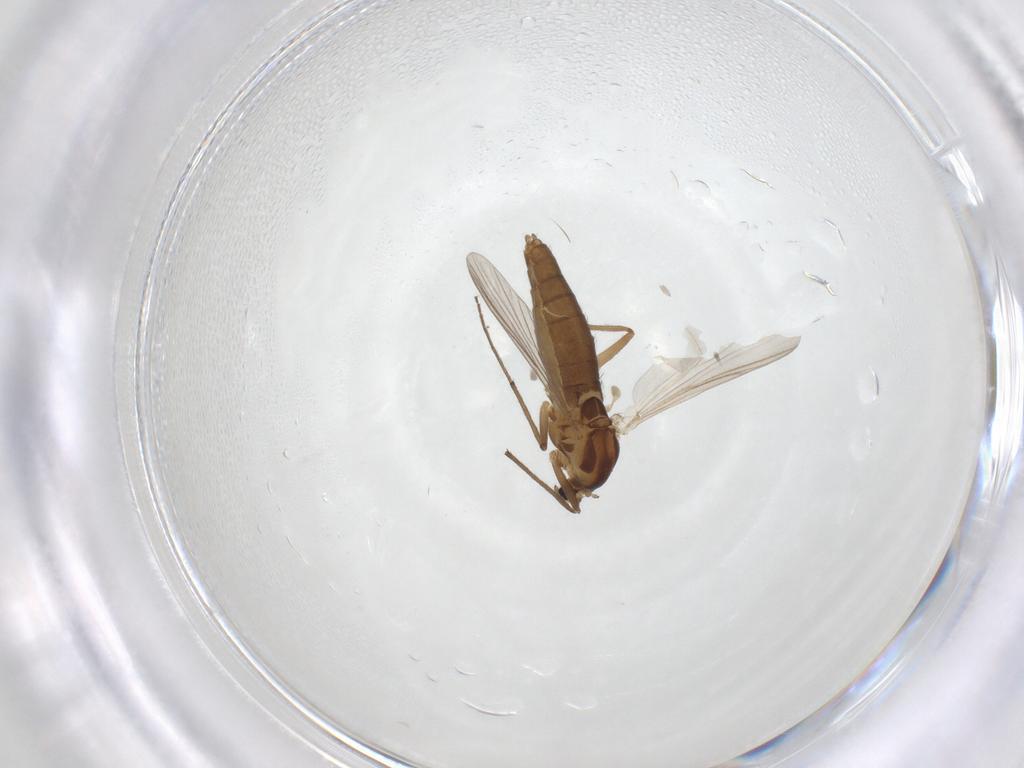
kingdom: Animalia
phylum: Arthropoda
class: Insecta
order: Diptera
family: Chironomidae
